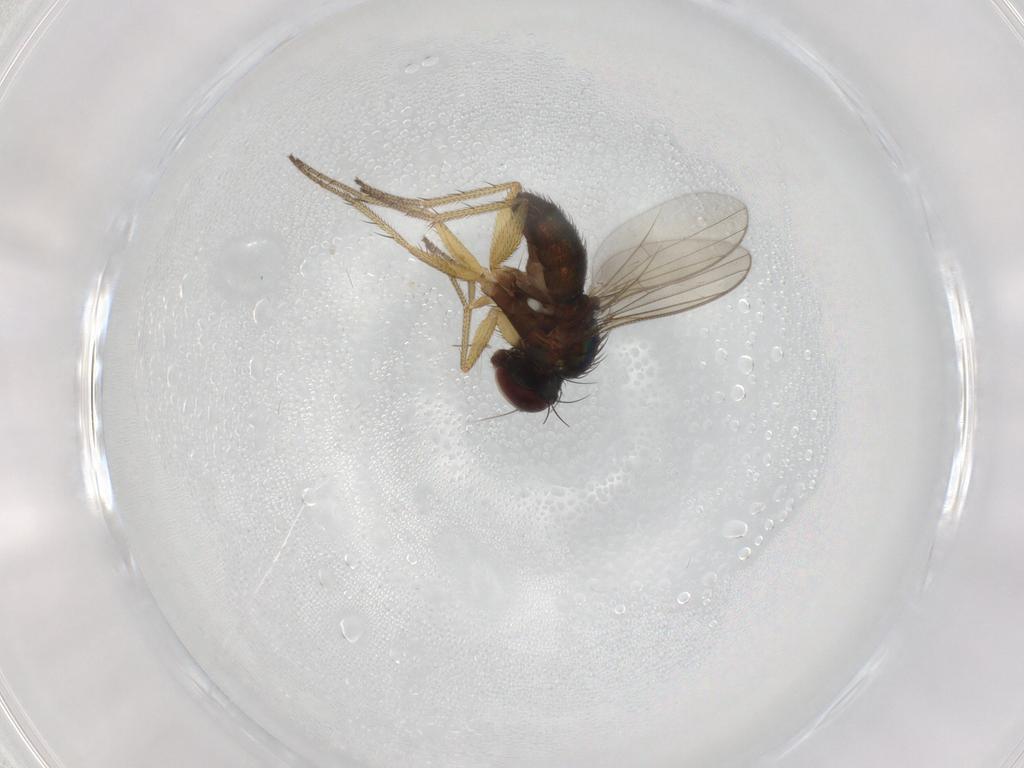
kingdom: Animalia
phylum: Arthropoda
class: Insecta
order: Diptera
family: Dolichopodidae
